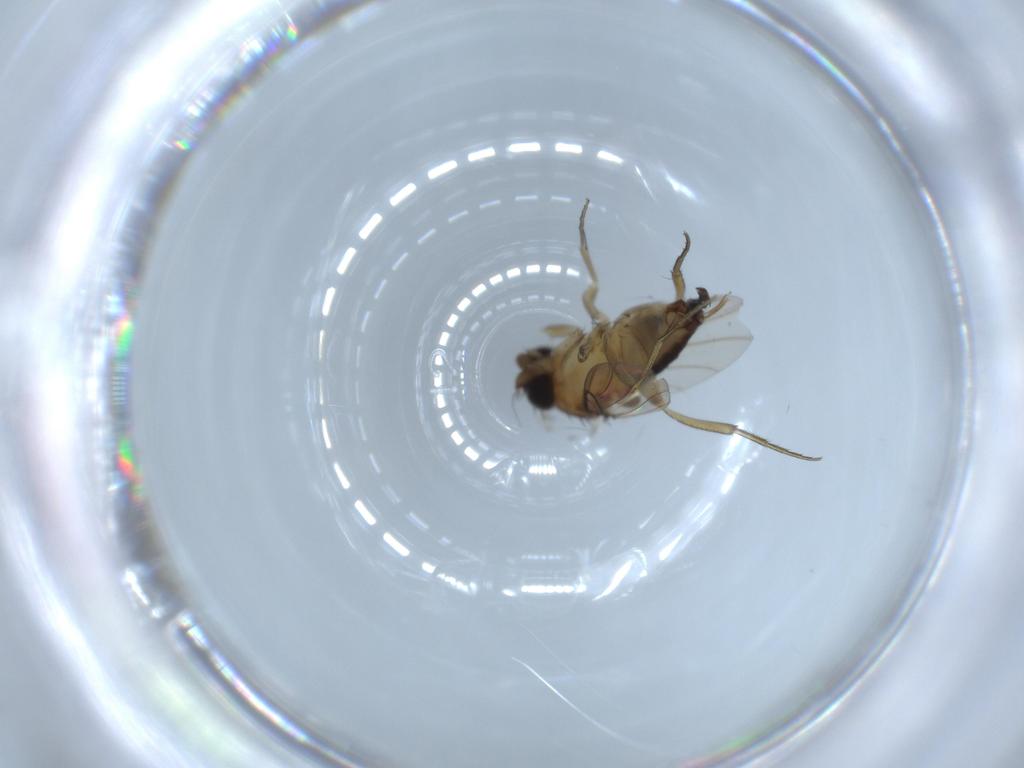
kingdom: Animalia
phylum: Arthropoda
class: Insecta
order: Diptera
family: Phoridae
